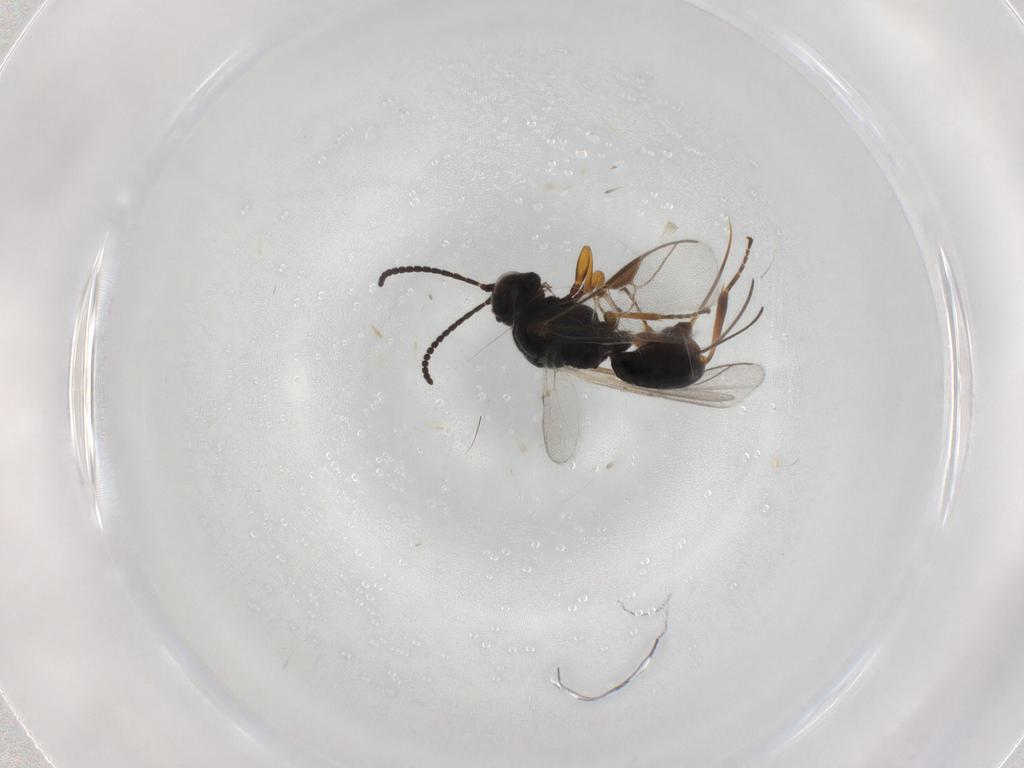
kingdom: Animalia
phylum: Arthropoda
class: Insecta
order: Hymenoptera
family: Braconidae
